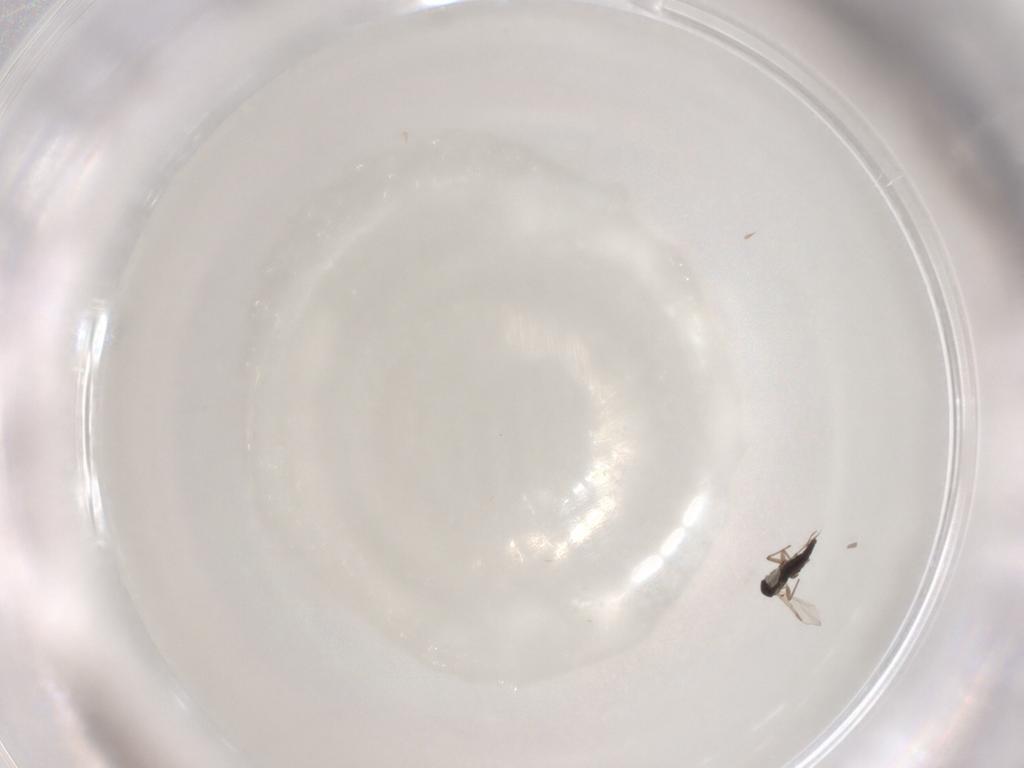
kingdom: Animalia
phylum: Arthropoda
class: Insecta
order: Diptera
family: Chironomidae
